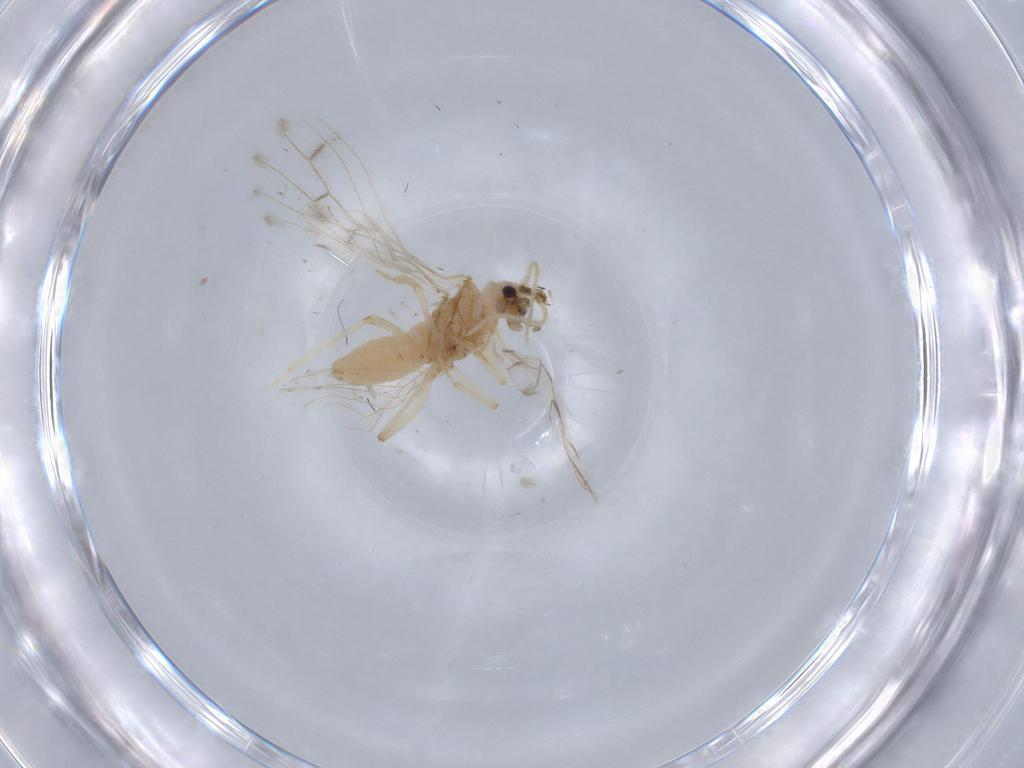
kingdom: Animalia
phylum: Arthropoda
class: Insecta
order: Neuroptera
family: Coniopterygidae
